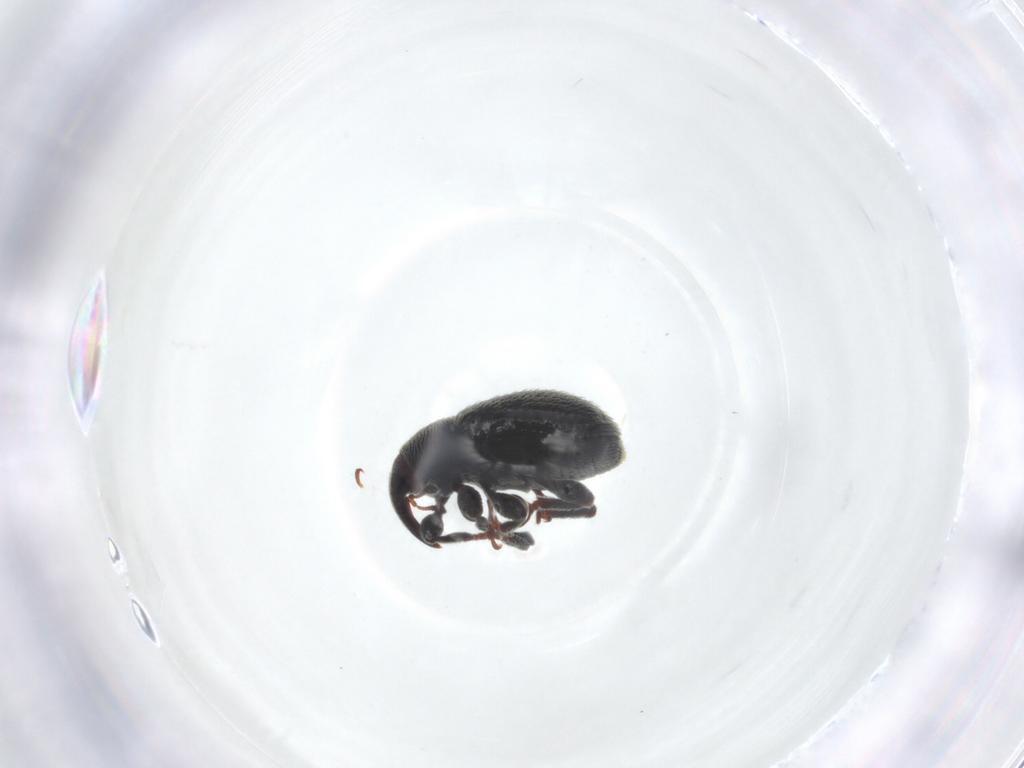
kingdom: Animalia
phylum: Arthropoda
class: Insecta
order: Coleoptera
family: Curculionidae
